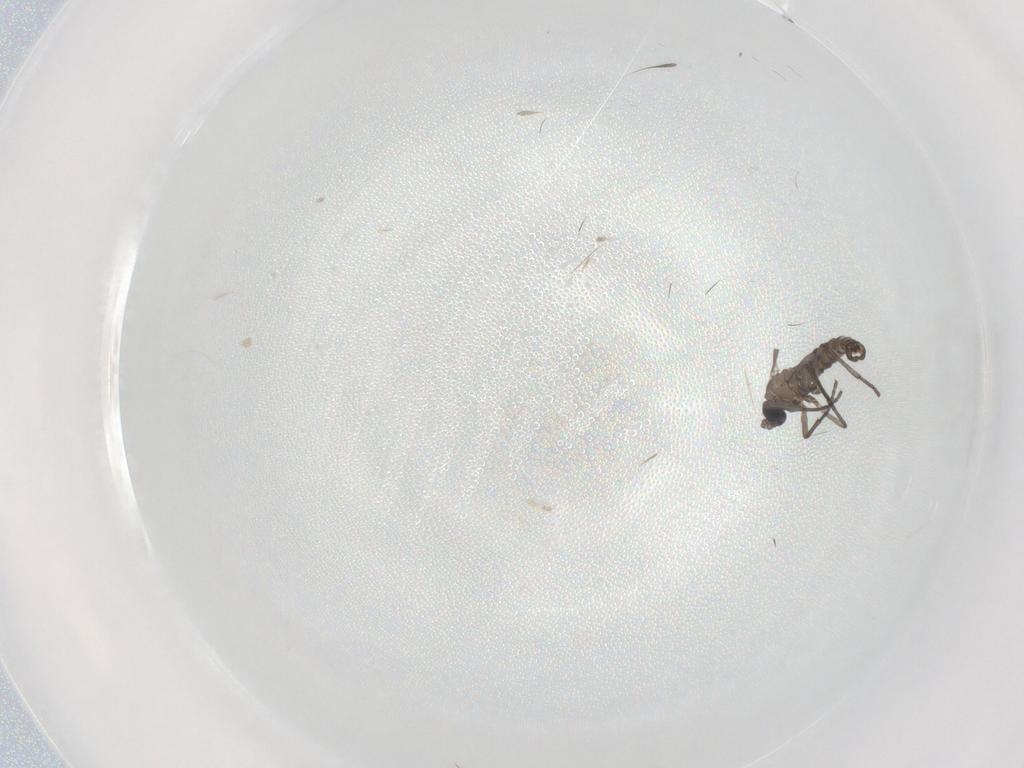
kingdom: Animalia
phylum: Arthropoda
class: Insecta
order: Diptera
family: Sciaridae
